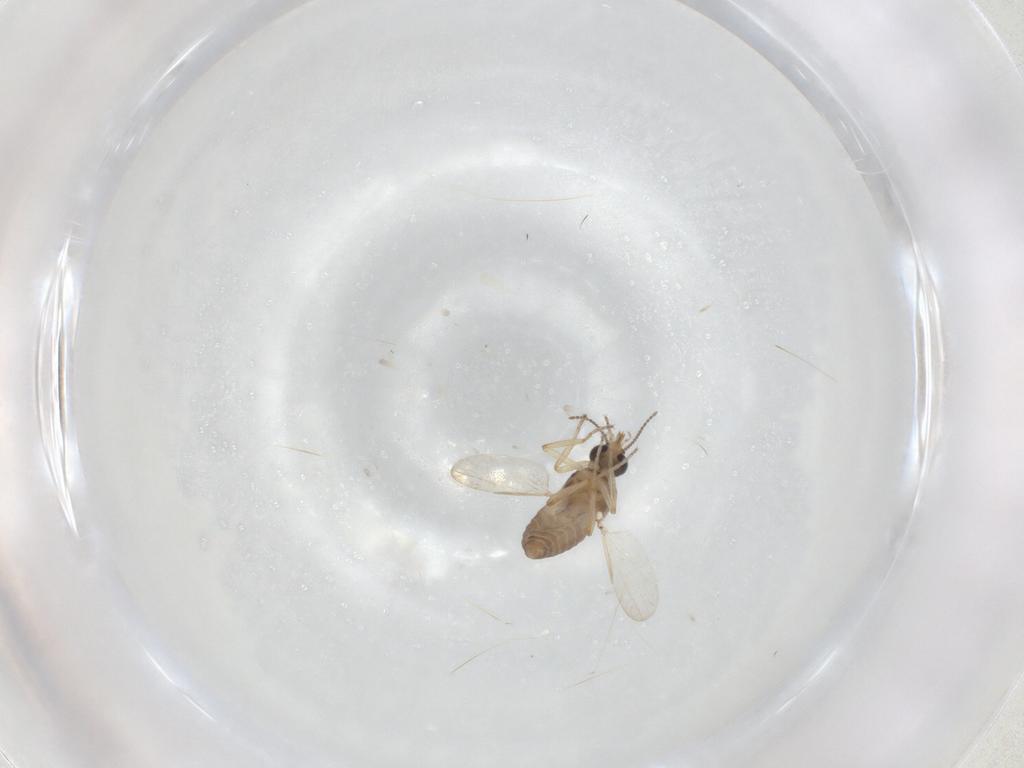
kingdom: Animalia
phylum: Arthropoda
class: Insecta
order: Diptera
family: Ceratopogonidae
